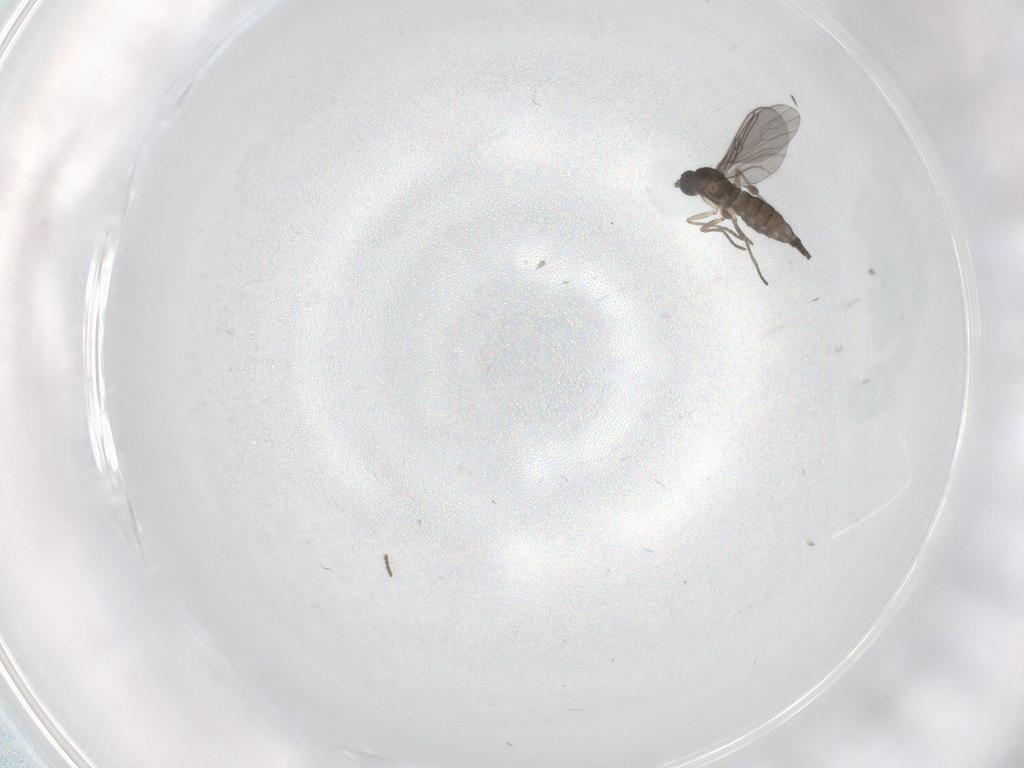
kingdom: Animalia
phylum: Arthropoda
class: Insecta
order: Diptera
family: Sciaridae
